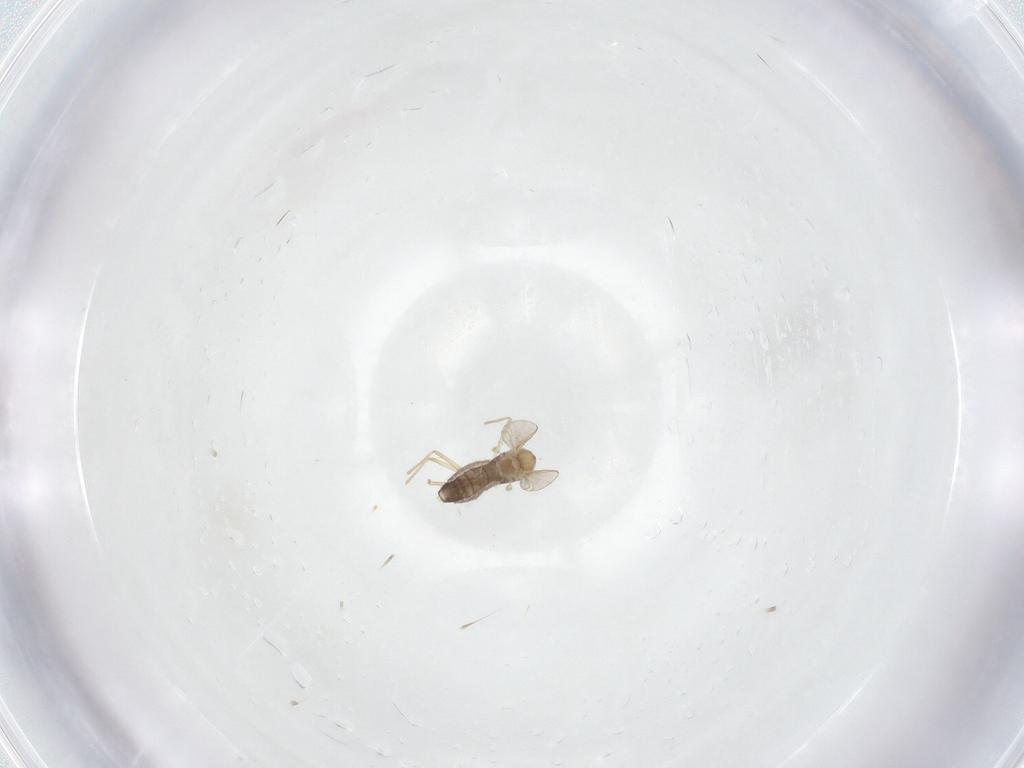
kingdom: Animalia
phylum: Arthropoda
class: Insecta
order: Diptera
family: Chironomidae
